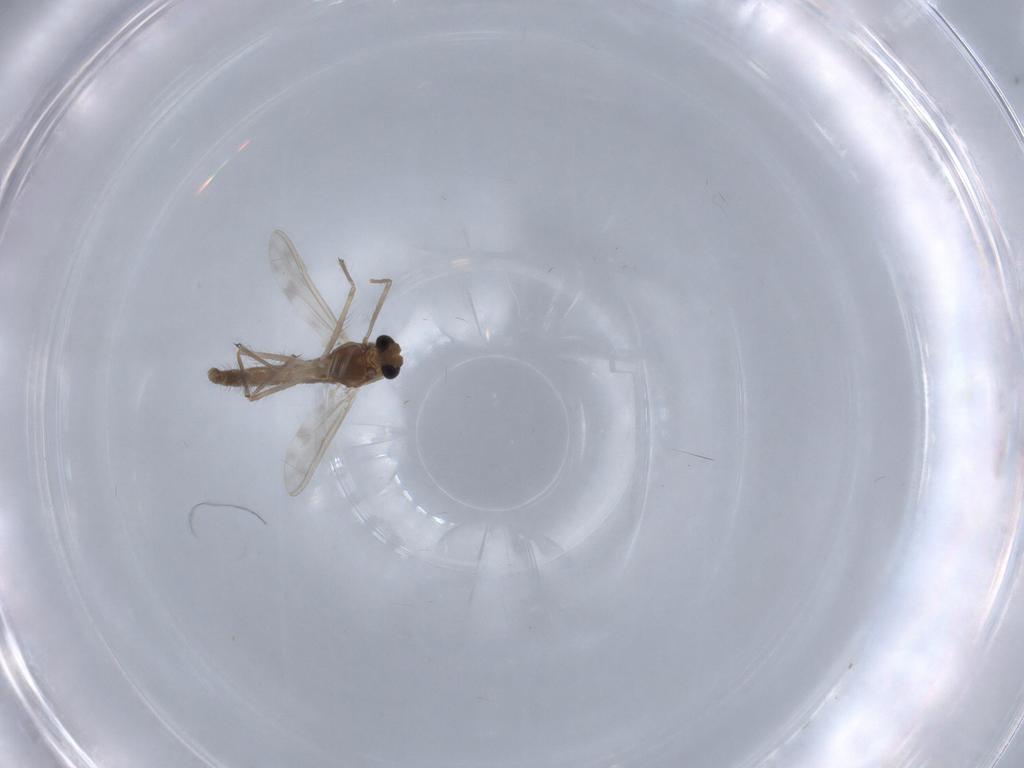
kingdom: Animalia
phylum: Arthropoda
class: Insecta
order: Diptera
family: Chironomidae
